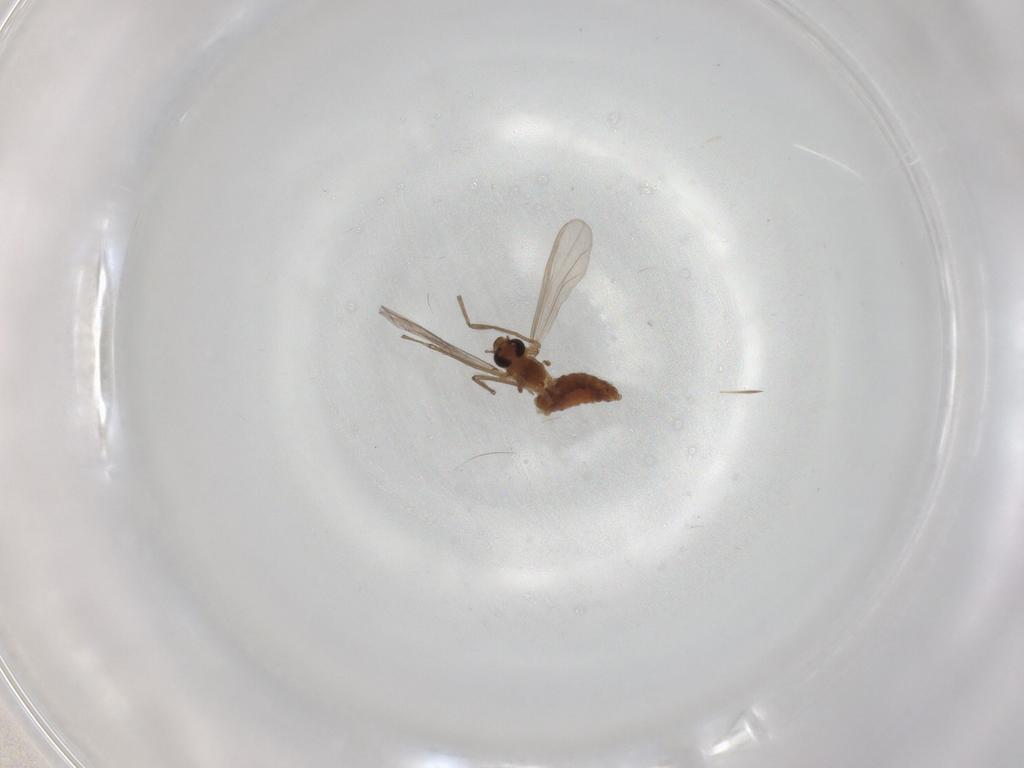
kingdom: Animalia
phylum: Arthropoda
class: Insecta
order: Diptera
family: Chironomidae
